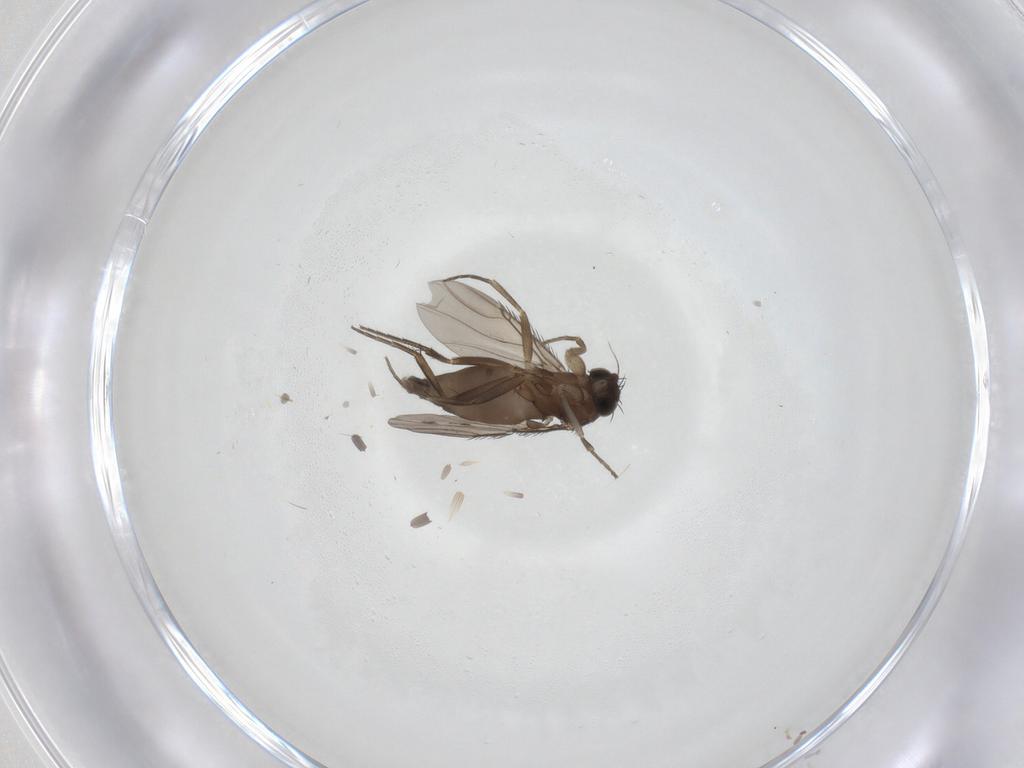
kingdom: Animalia
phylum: Arthropoda
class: Insecta
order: Diptera
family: Phoridae
